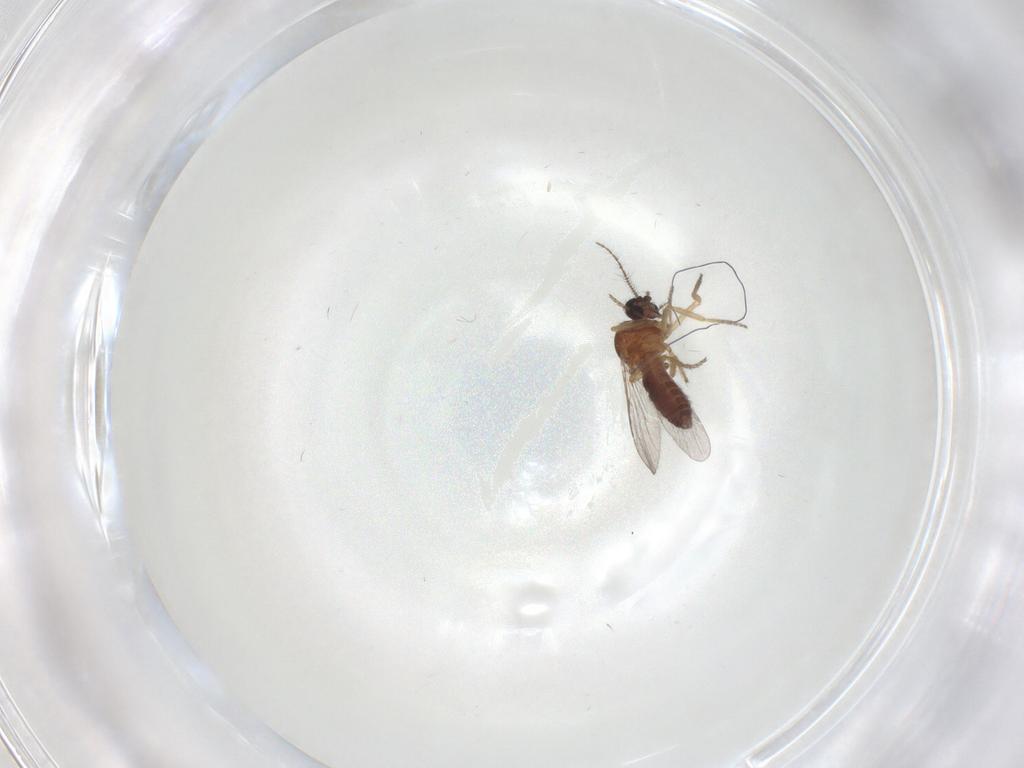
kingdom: Animalia
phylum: Arthropoda
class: Insecta
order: Diptera
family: Ceratopogonidae
